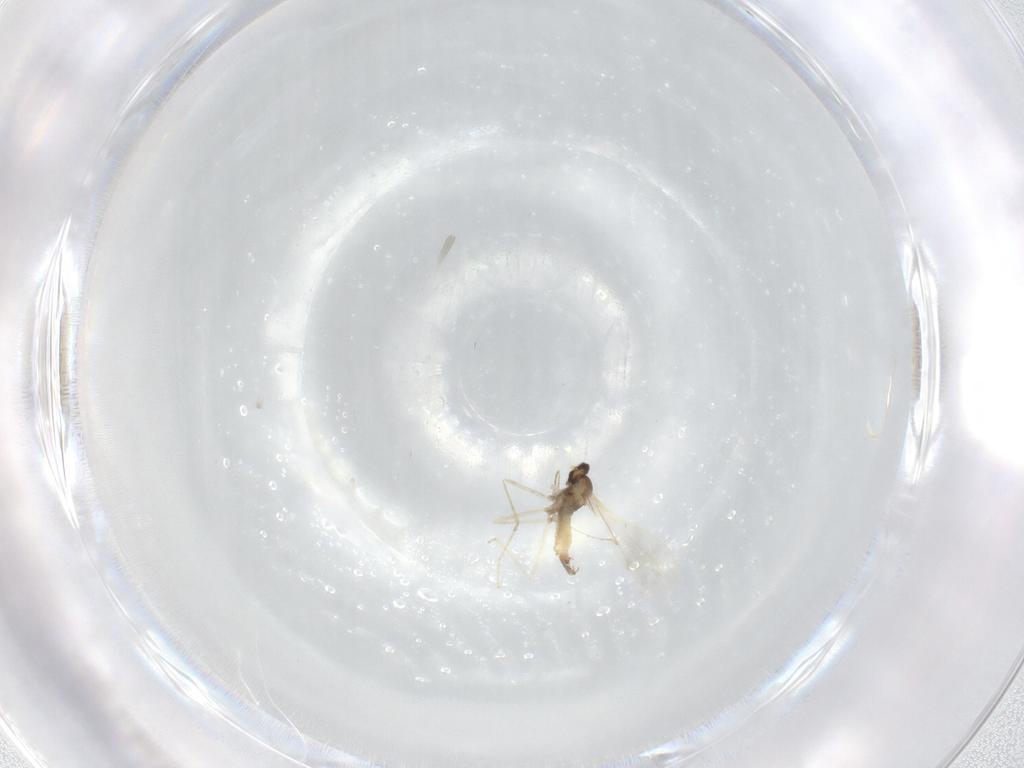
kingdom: Animalia
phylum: Arthropoda
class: Insecta
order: Diptera
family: Cecidomyiidae
